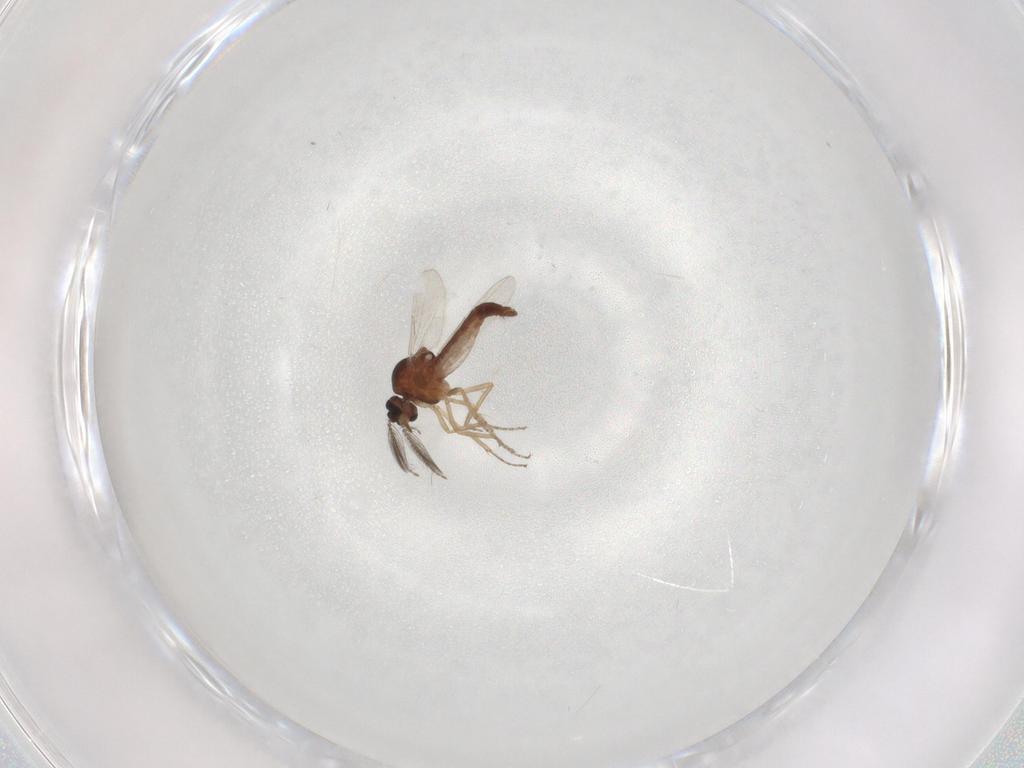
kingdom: Animalia
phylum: Arthropoda
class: Insecta
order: Diptera
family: Ceratopogonidae
